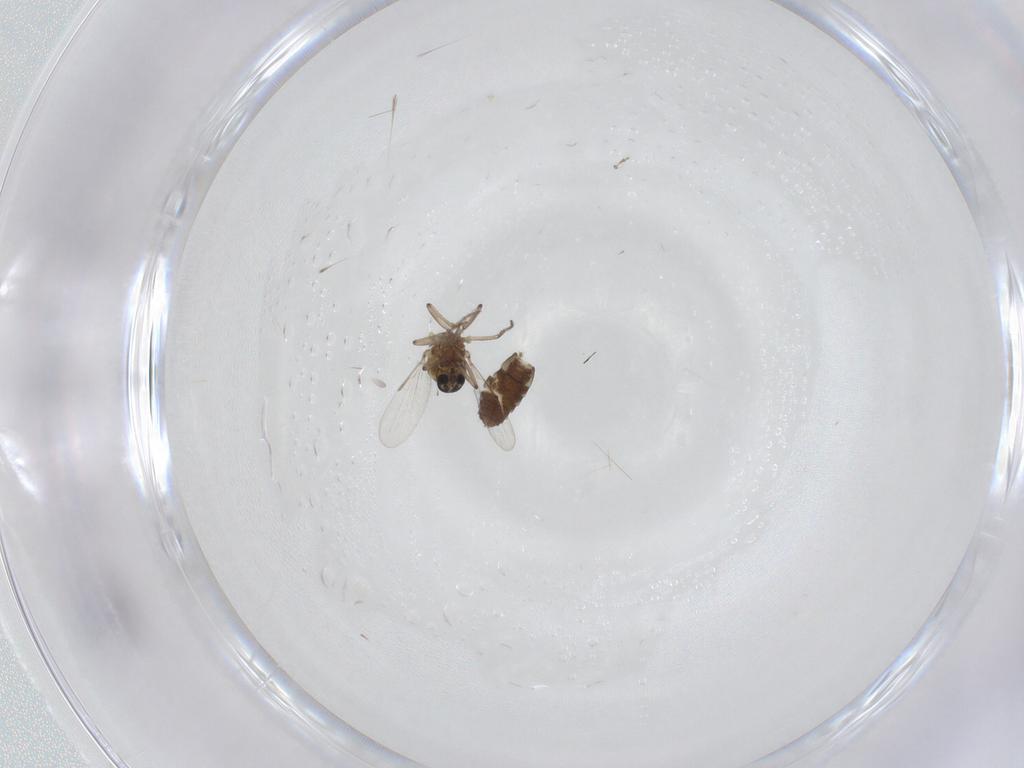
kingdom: Animalia
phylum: Arthropoda
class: Insecta
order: Diptera
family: Ceratopogonidae
